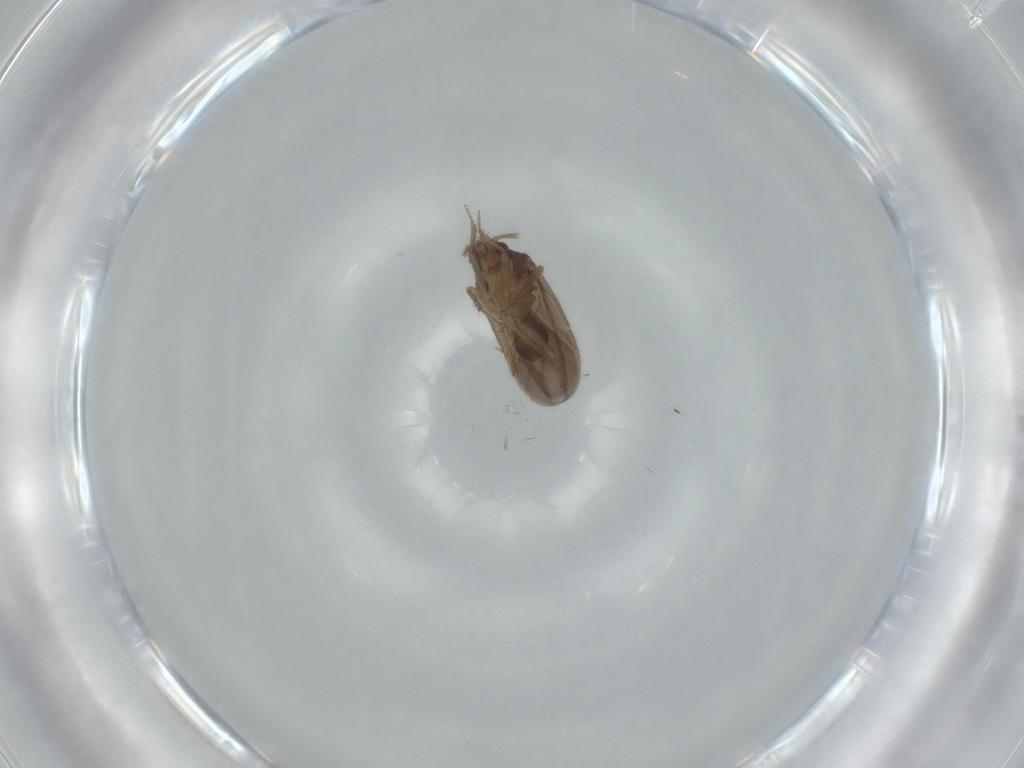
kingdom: Animalia
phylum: Arthropoda
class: Insecta
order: Hemiptera
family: Ceratocombidae
